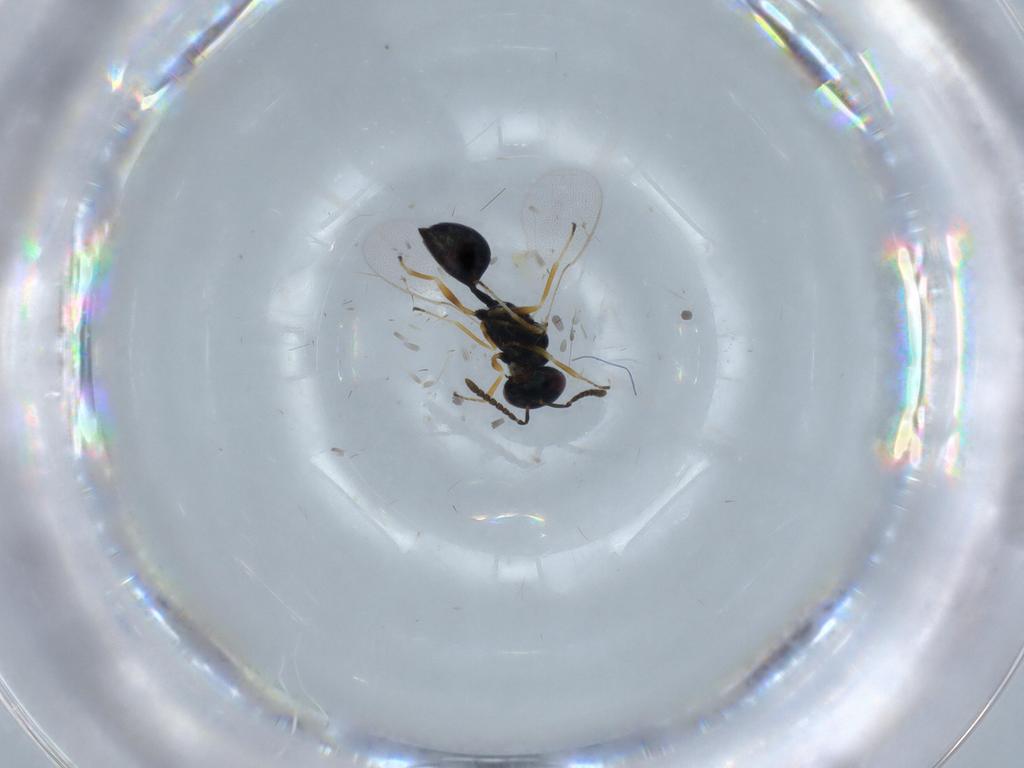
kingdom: Animalia
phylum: Arthropoda
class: Insecta
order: Hymenoptera
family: Pteromalidae
